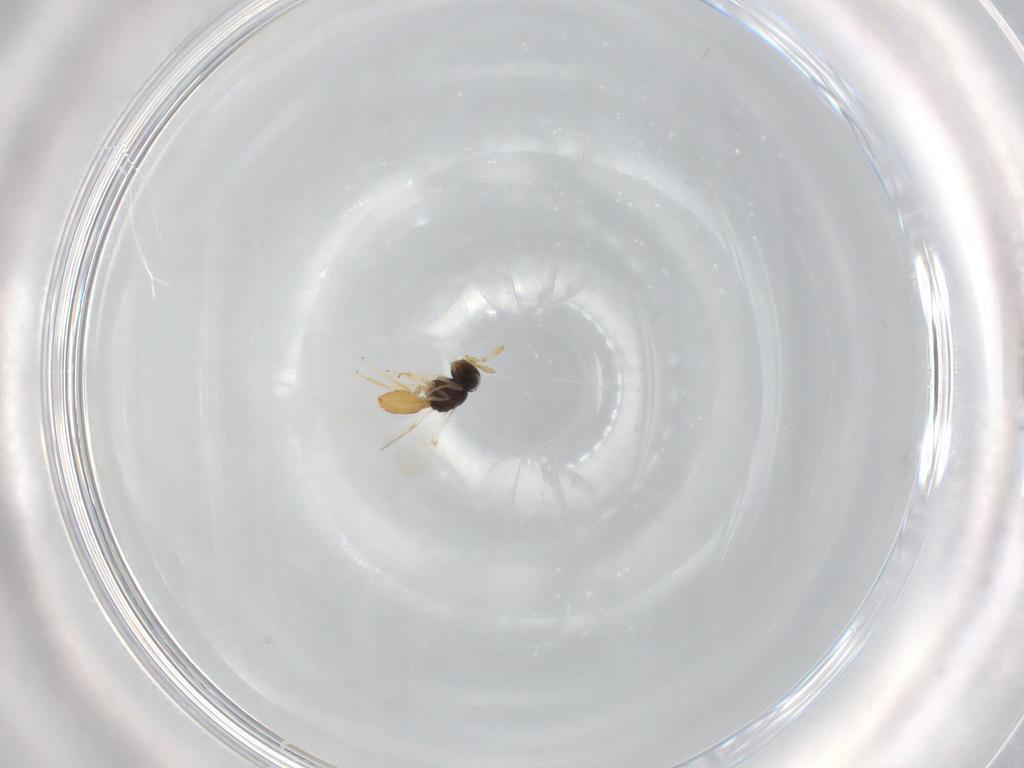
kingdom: Animalia
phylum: Arthropoda
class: Insecta
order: Hymenoptera
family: Scelionidae
